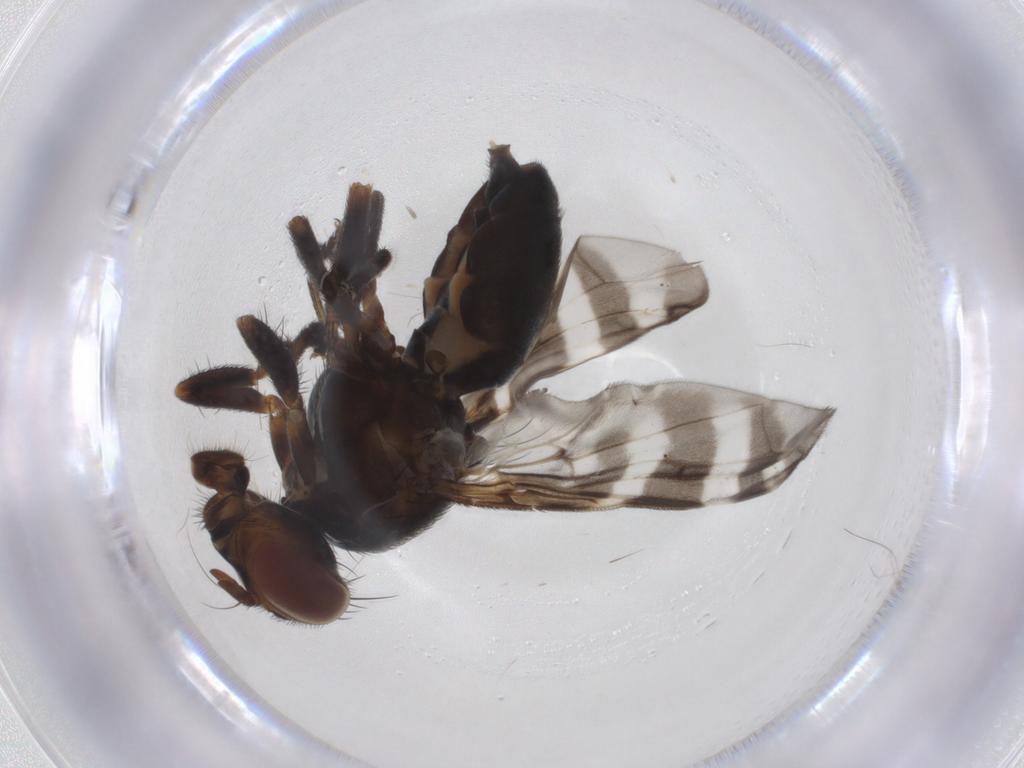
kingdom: Animalia
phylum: Arthropoda
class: Insecta
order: Diptera
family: Platystomatidae
